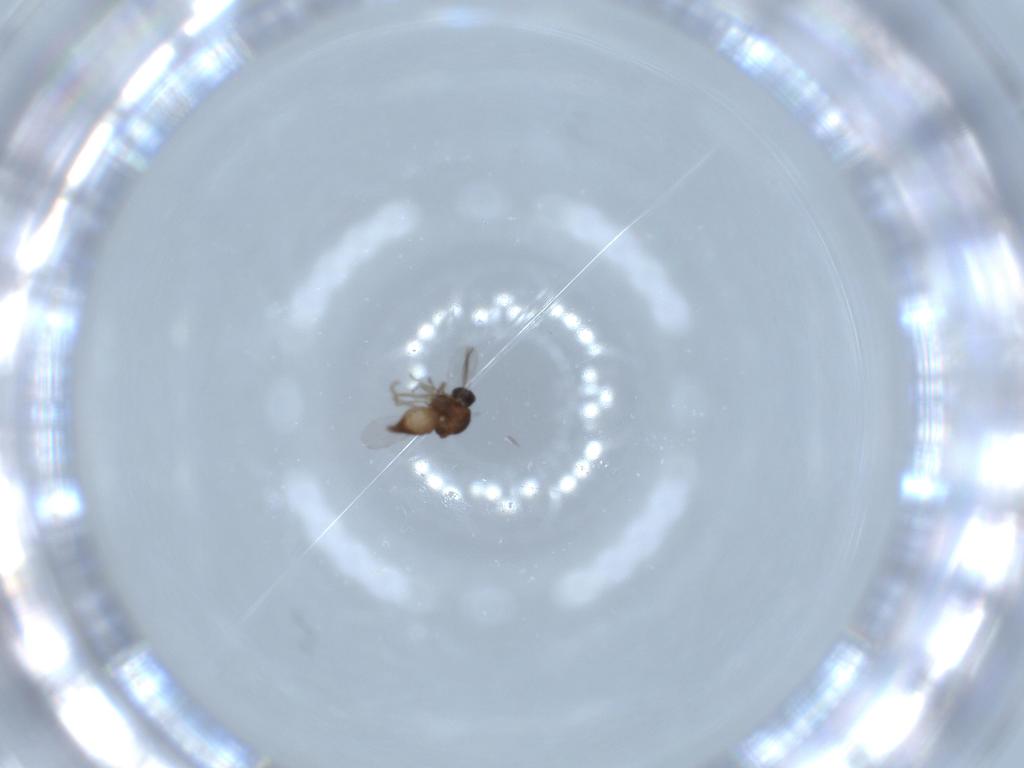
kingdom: Animalia
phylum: Arthropoda
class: Insecta
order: Diptera
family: Ceratopogonidae
